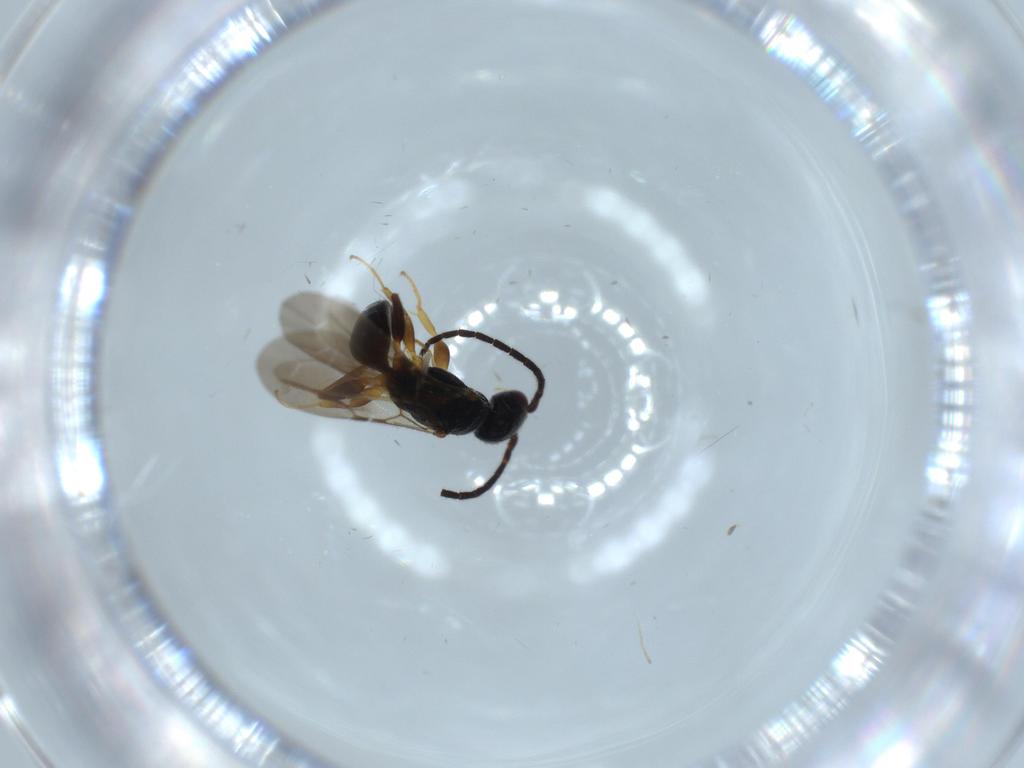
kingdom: Animalia
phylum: Arthropoda
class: Insecta
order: Hymenoptera
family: Bethylidae
